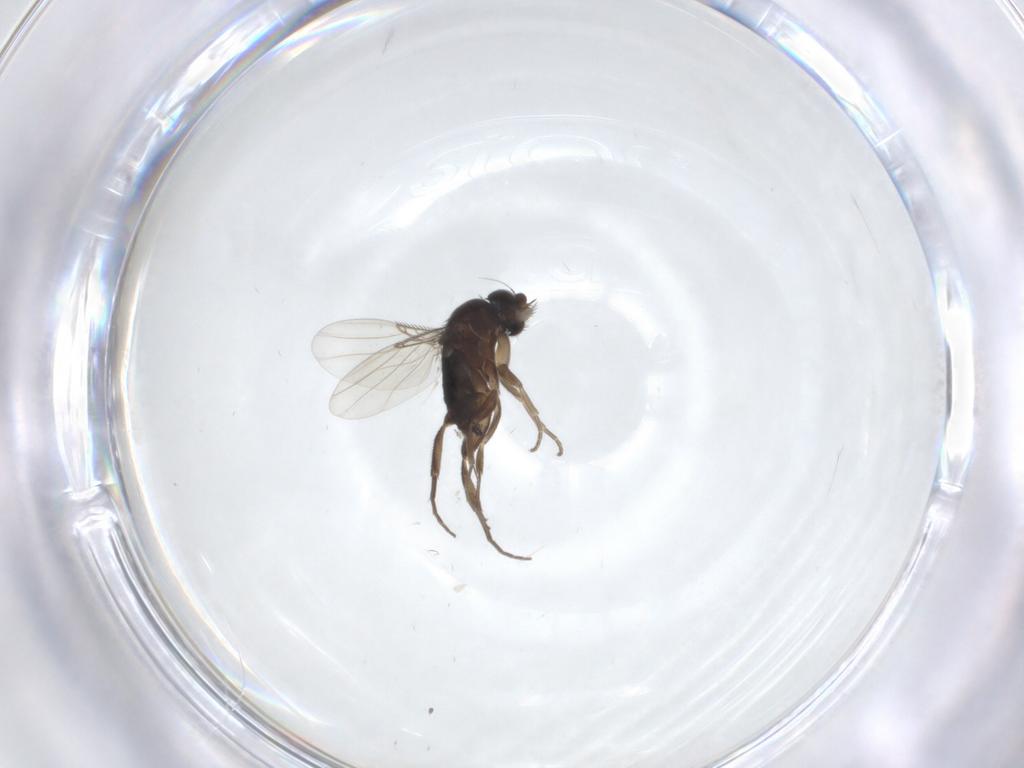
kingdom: Animalia
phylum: Arthropoda
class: Insecta
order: Diptera
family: Phoridae
